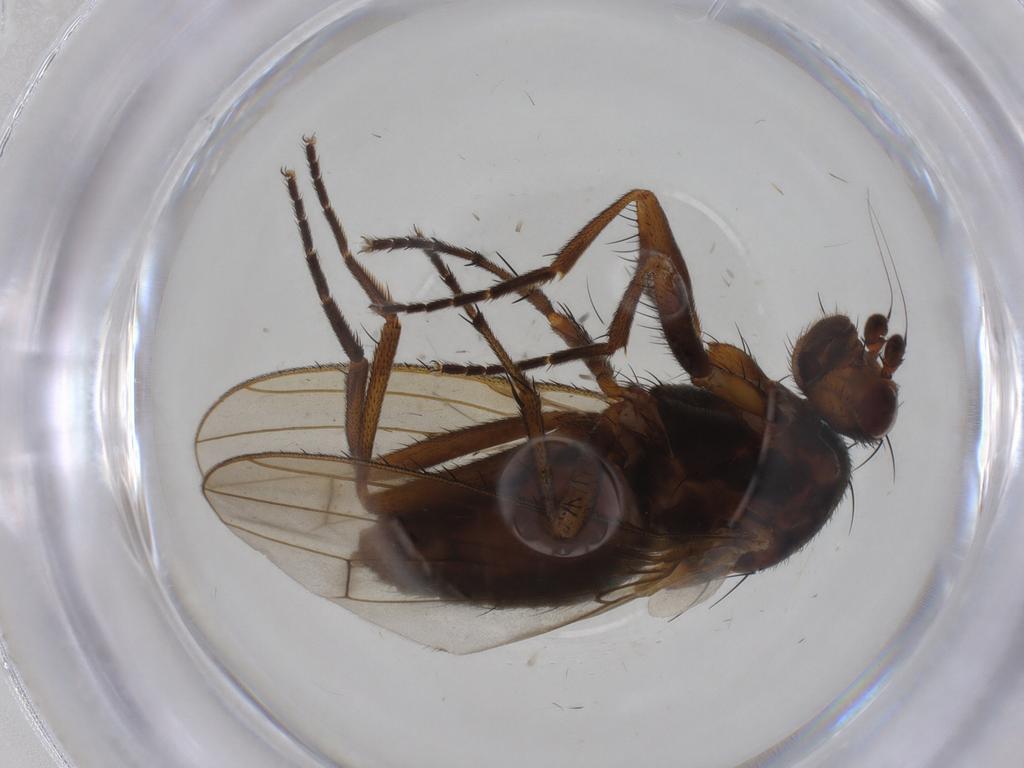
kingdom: Animalia
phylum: Arthropoda
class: Insecta
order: Diptera
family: Heleomyzidae
